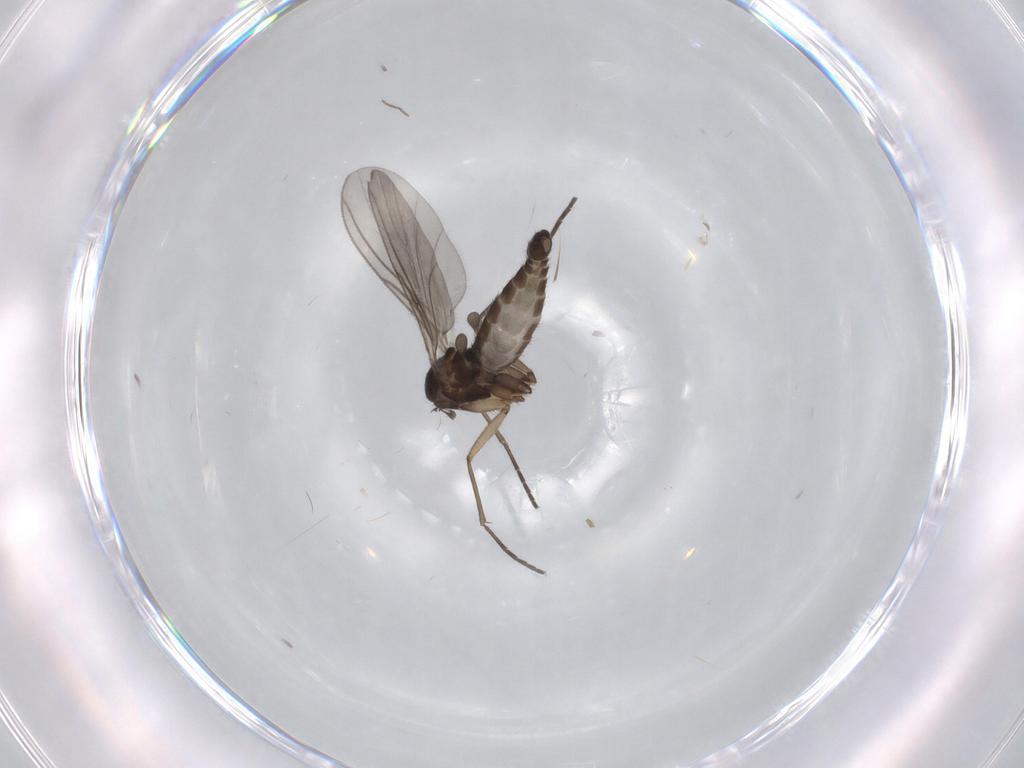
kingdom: Animalia
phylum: Arthropoda
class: Insecta
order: Diptera
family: Sciaridae
